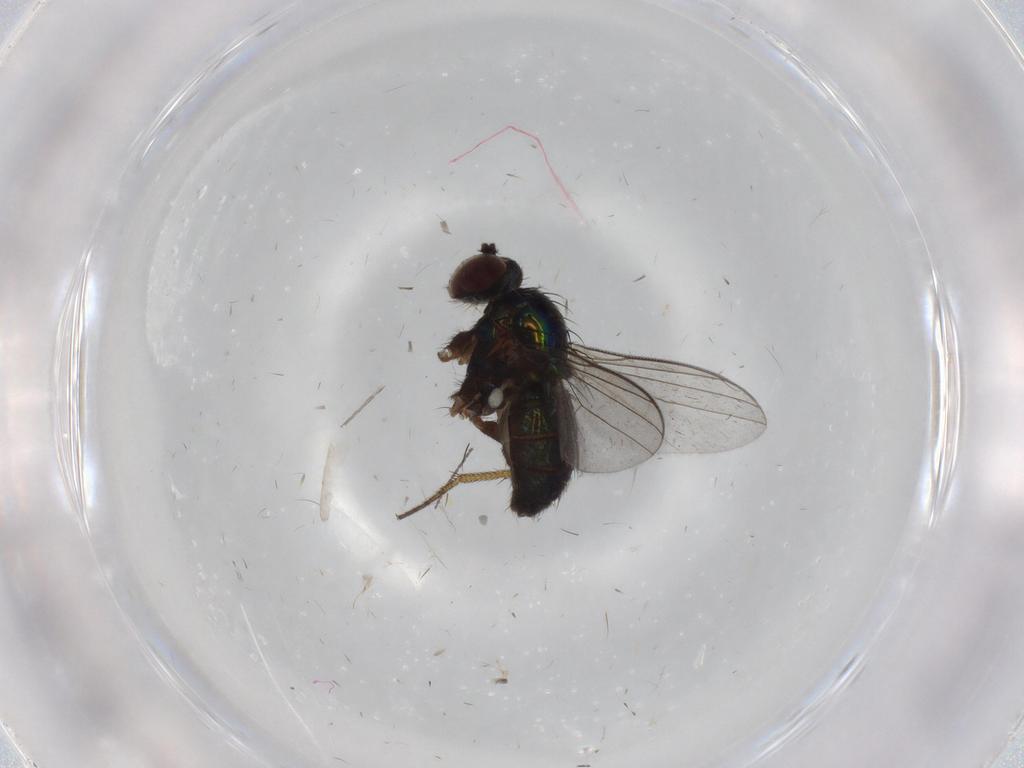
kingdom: Animalia
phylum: Arthropoda
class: Insecta
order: Diptera
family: Dolichopodidae
